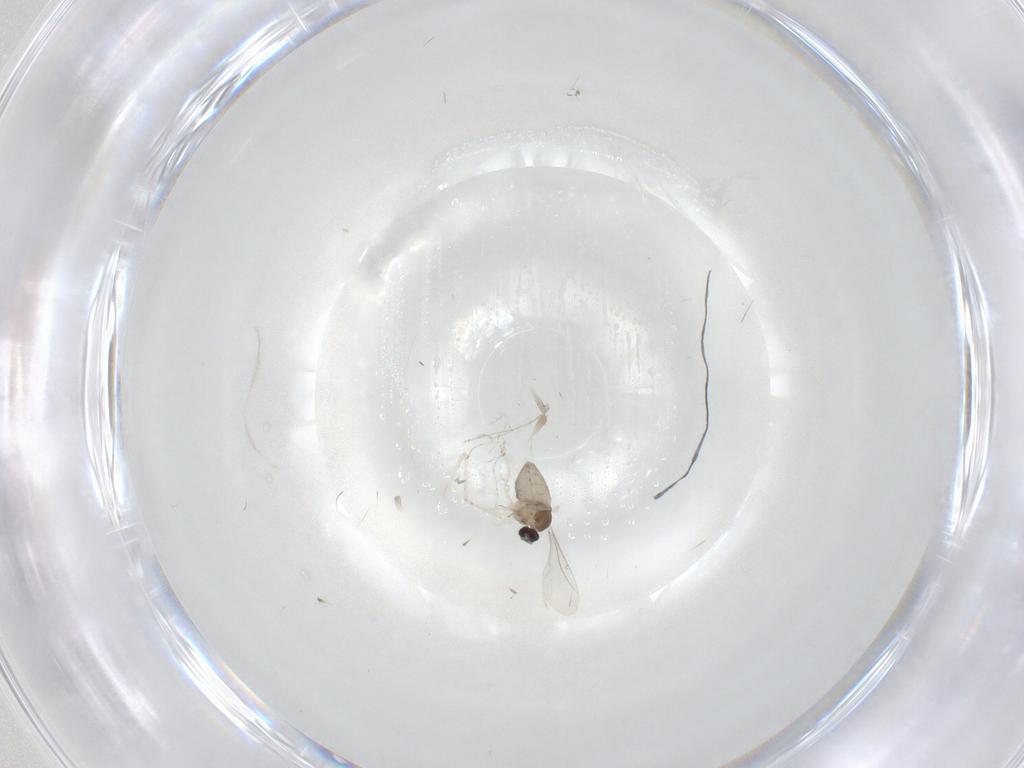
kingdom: Animalia
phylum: Arthropoda
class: Insecta
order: Diptera
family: Cecidomyiidae
